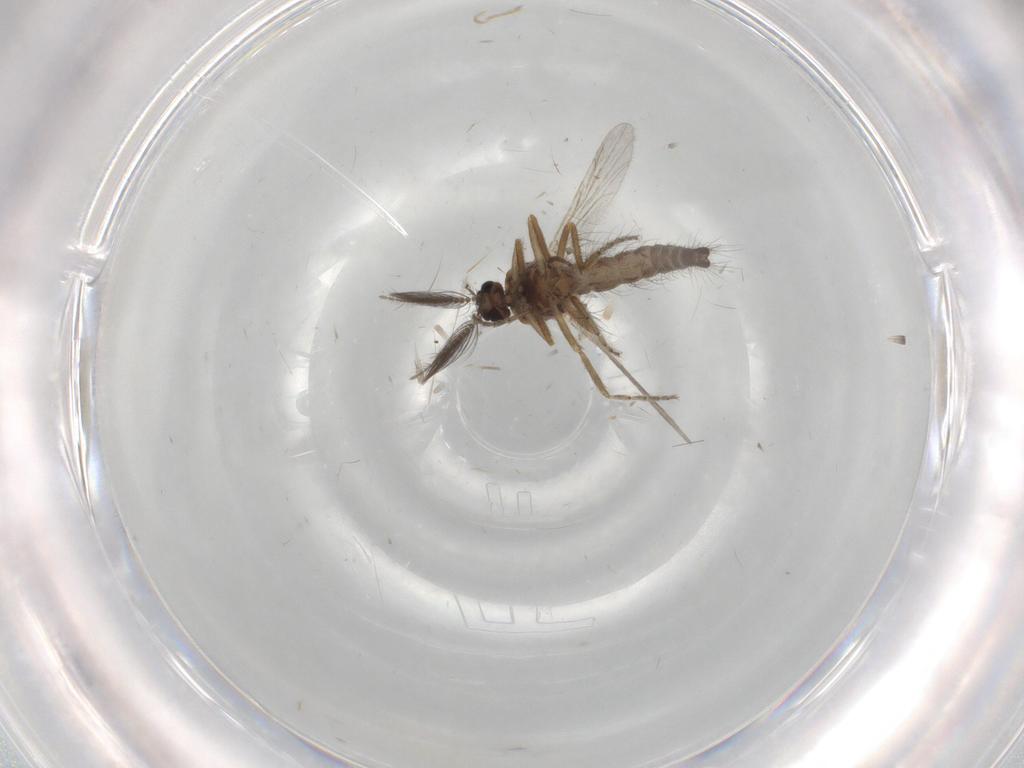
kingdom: Animalia
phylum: Arthropoda
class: Insecta
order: Diptera
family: Ceratopogonidae
